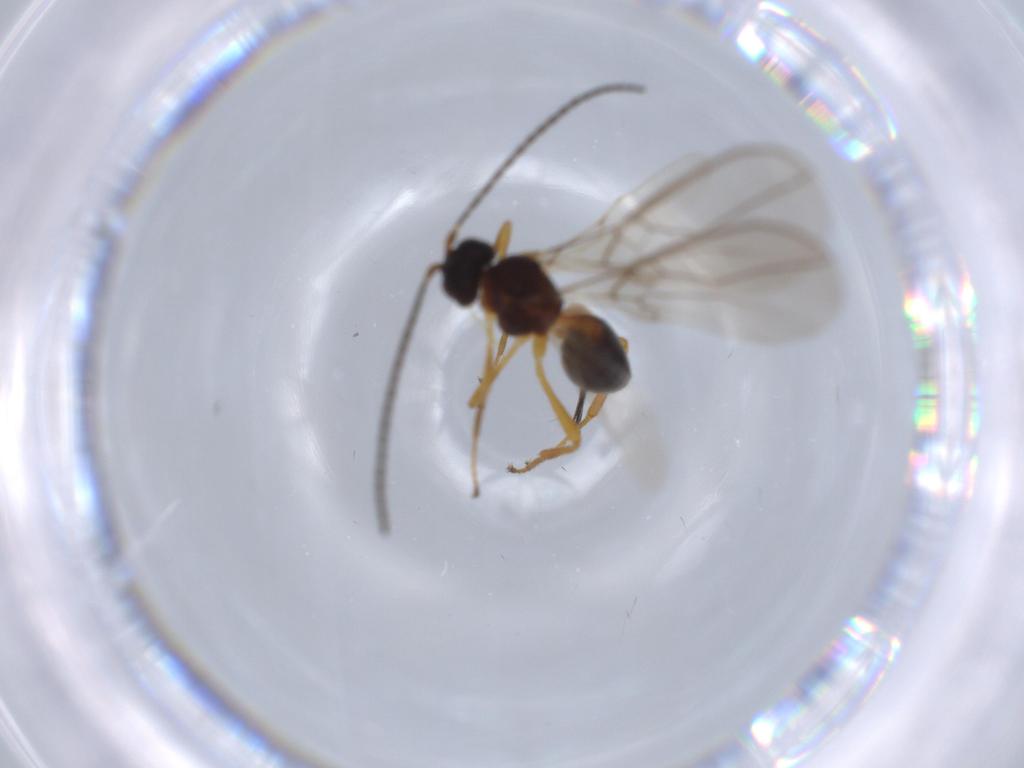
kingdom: Animalia
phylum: Arthropoda
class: Insecta
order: Hymenoptera
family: Braconidae
